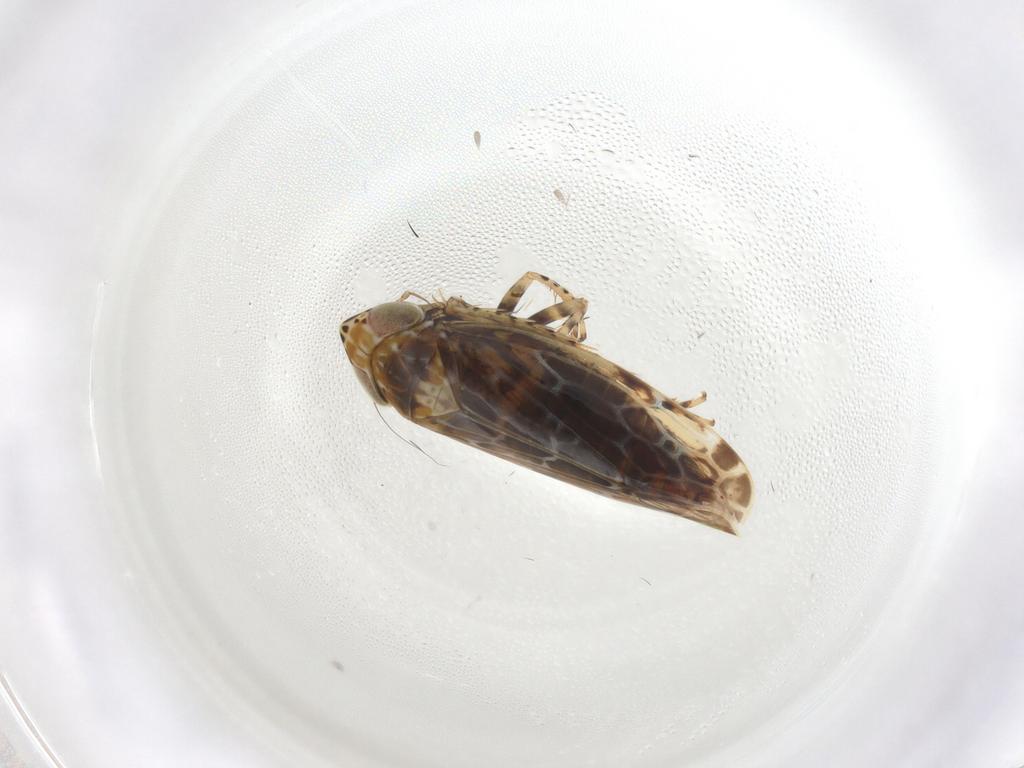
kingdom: Animalia
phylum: Arthropoda
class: Insecta
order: Hemiptera
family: Cicadellidae
